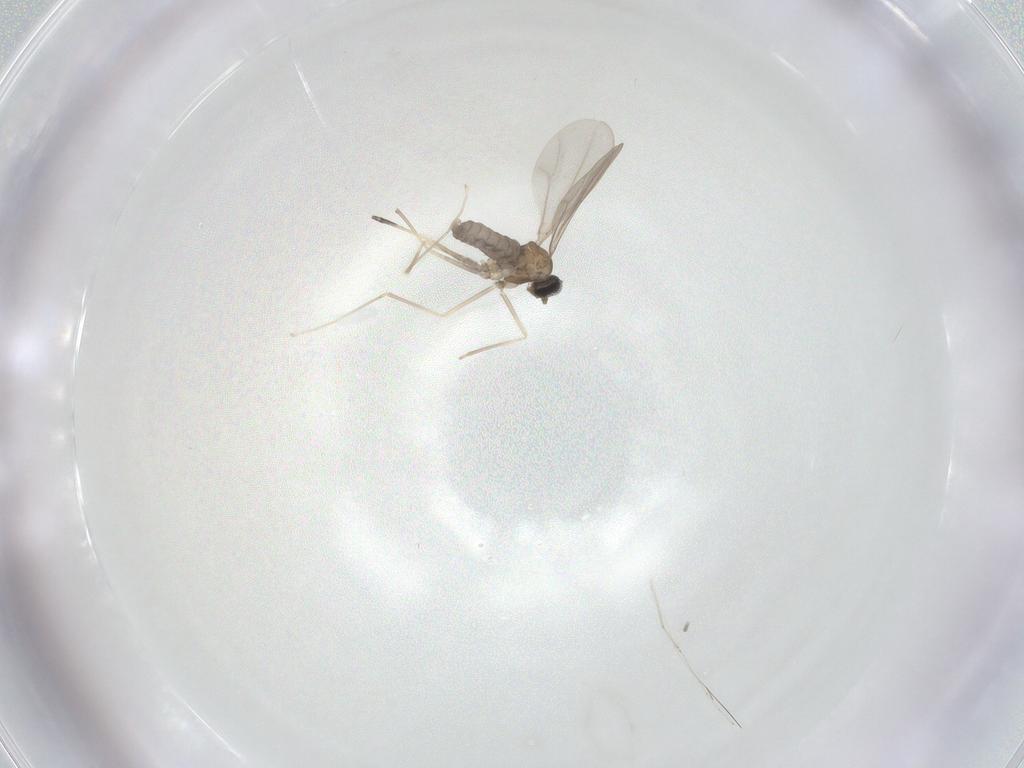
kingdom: Animalia
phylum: Arthropoda
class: Insecta
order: Diptera
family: Cecidomyiidae
